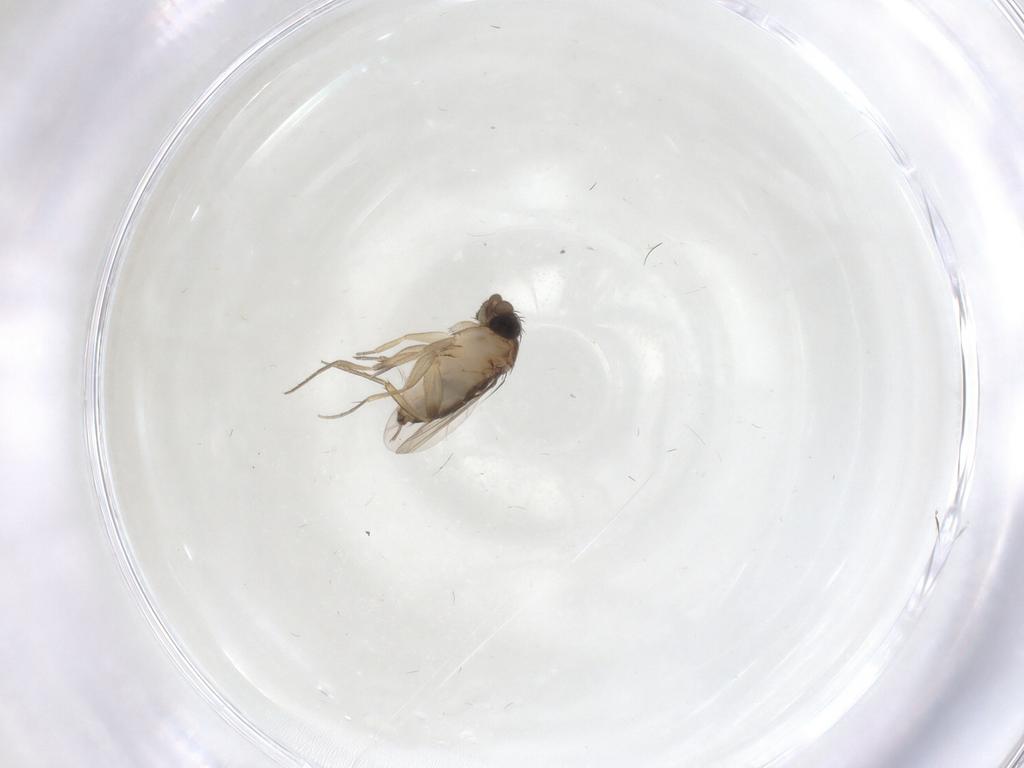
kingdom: Animalia
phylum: Arthropoda
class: Insecta
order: Diptera
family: Phoridae
